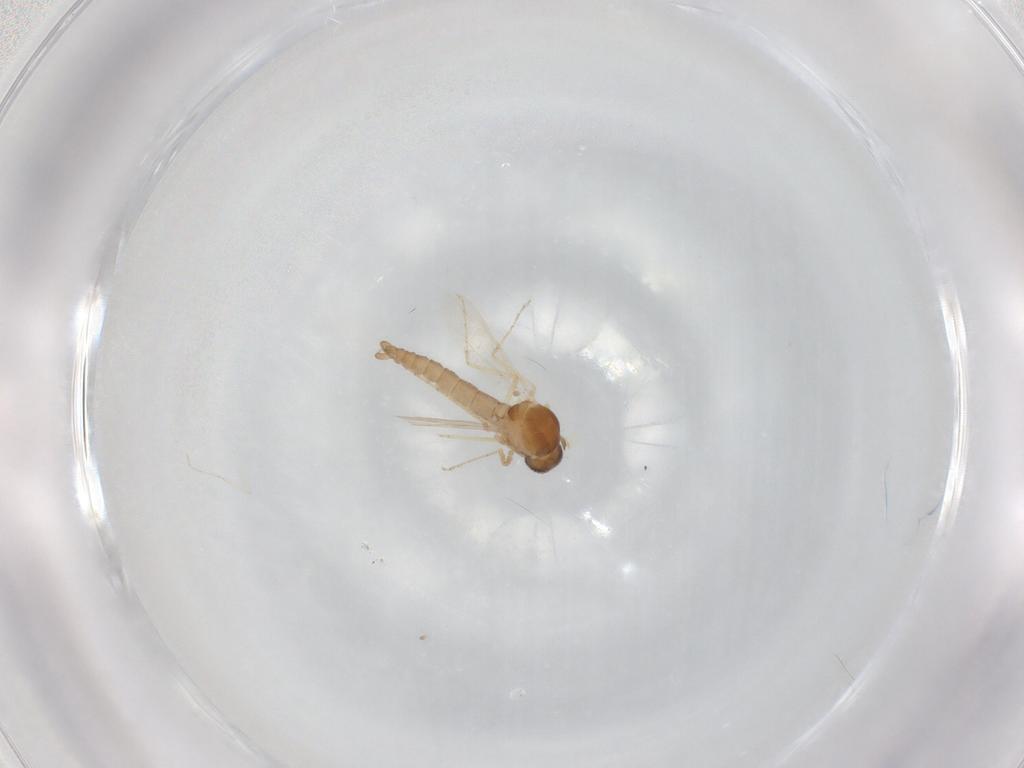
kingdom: Animalia
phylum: Arthropoda
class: Insecta
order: Diptera
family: Ceratopogonidae
